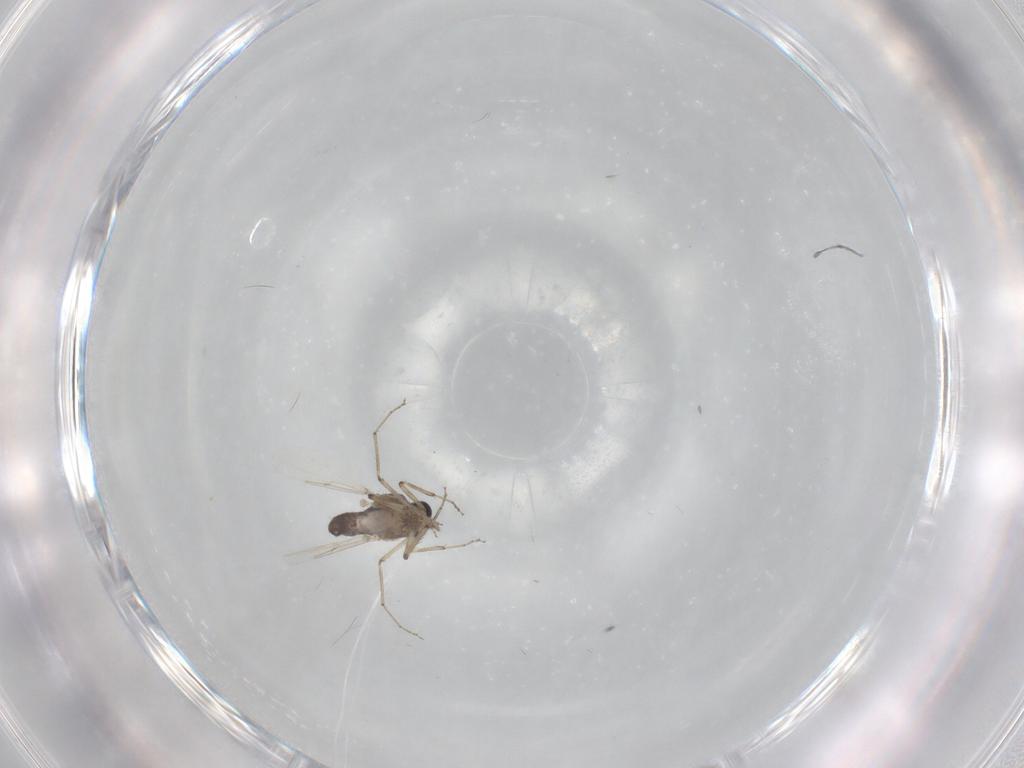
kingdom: Animalia
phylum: Arthropoda
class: Insecta
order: Diptera
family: Ceratopogonidae
